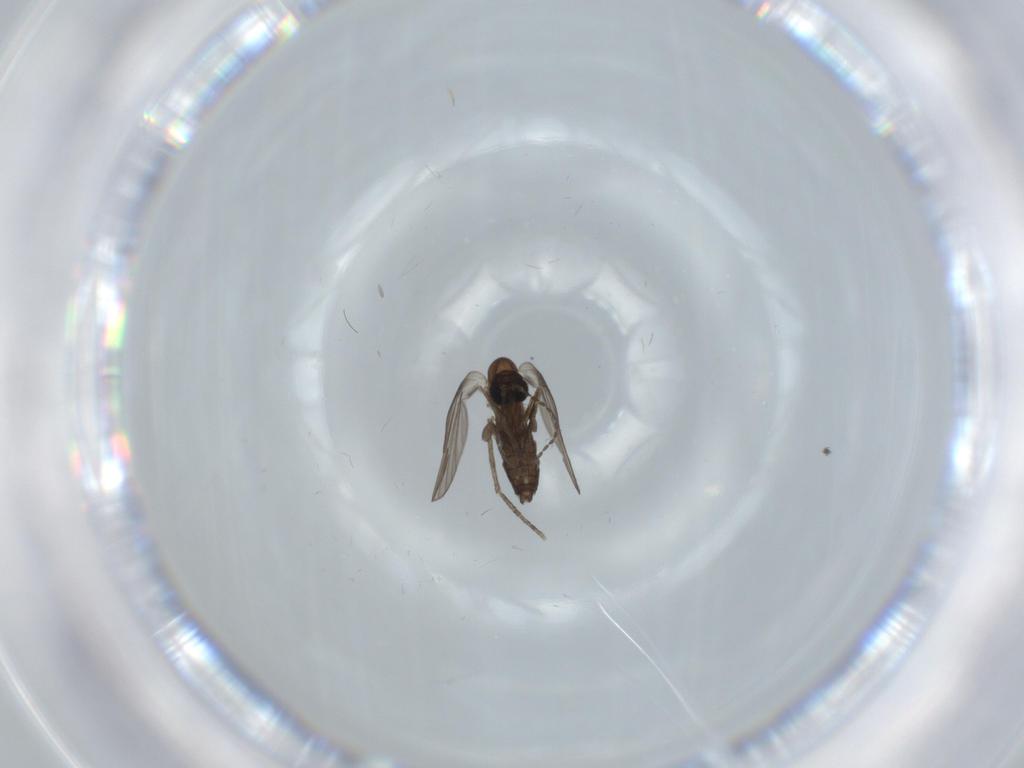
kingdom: Animalia
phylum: Arthropoda
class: Insecta
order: Diptera
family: Psychodidae
